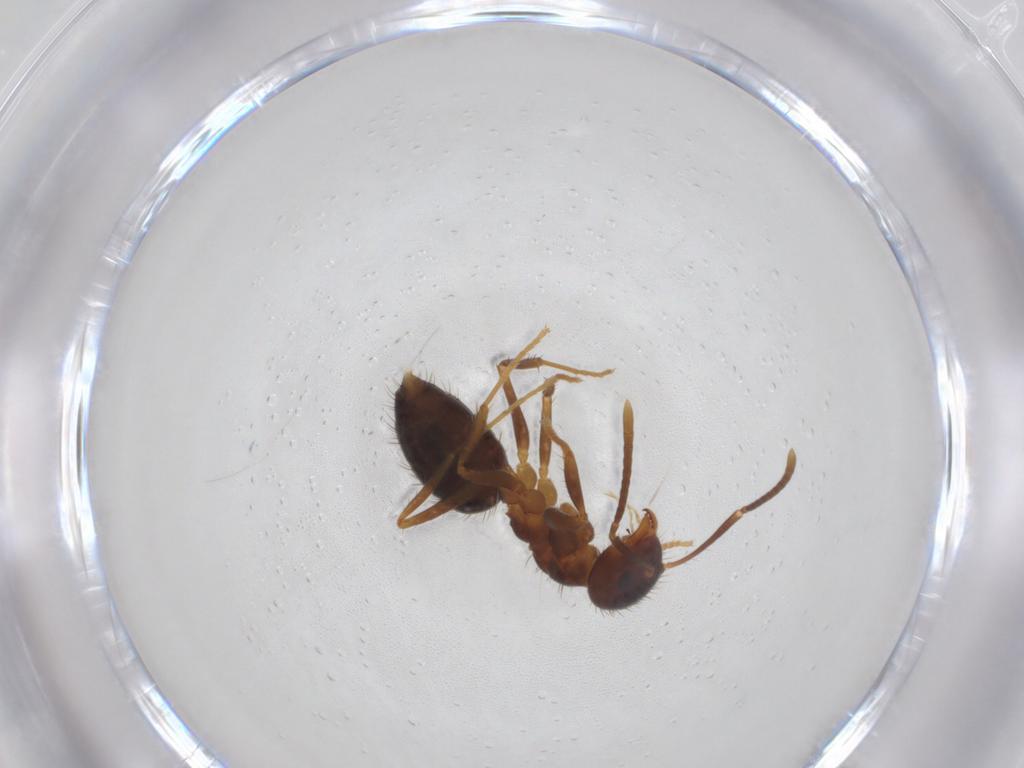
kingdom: Animalia
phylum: Arthropoda
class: Insecta
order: Hymenoptera
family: Formicidae
